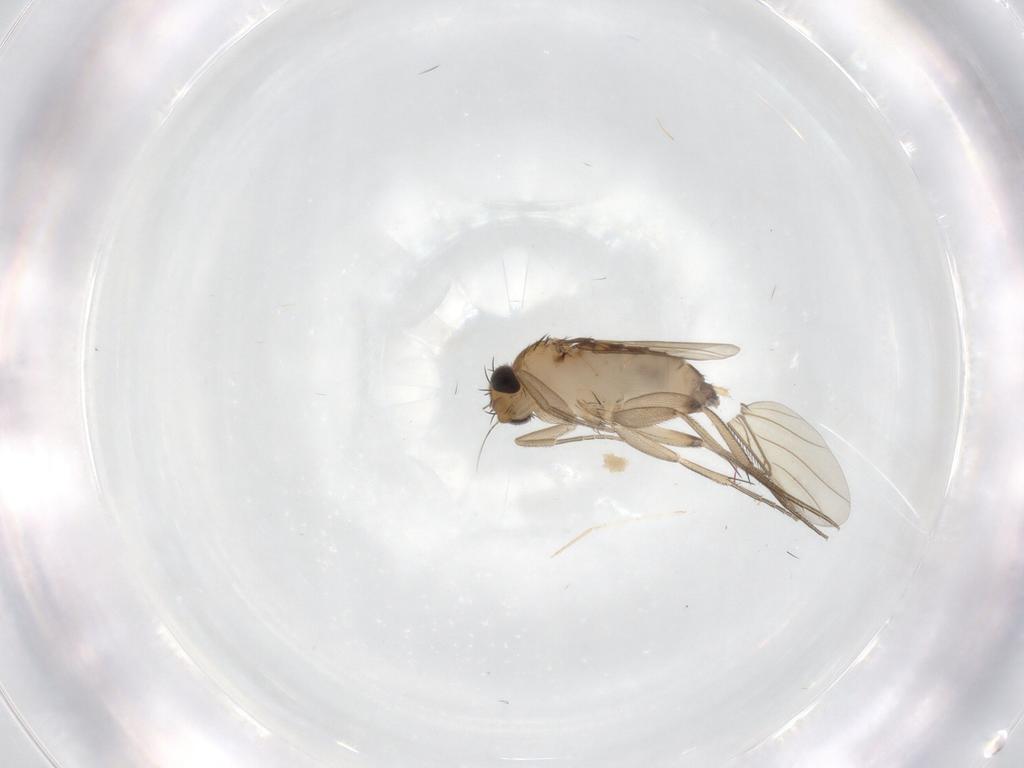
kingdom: Animalia
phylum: Arthropoda
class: Insecta
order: Diptera
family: Phoridae
